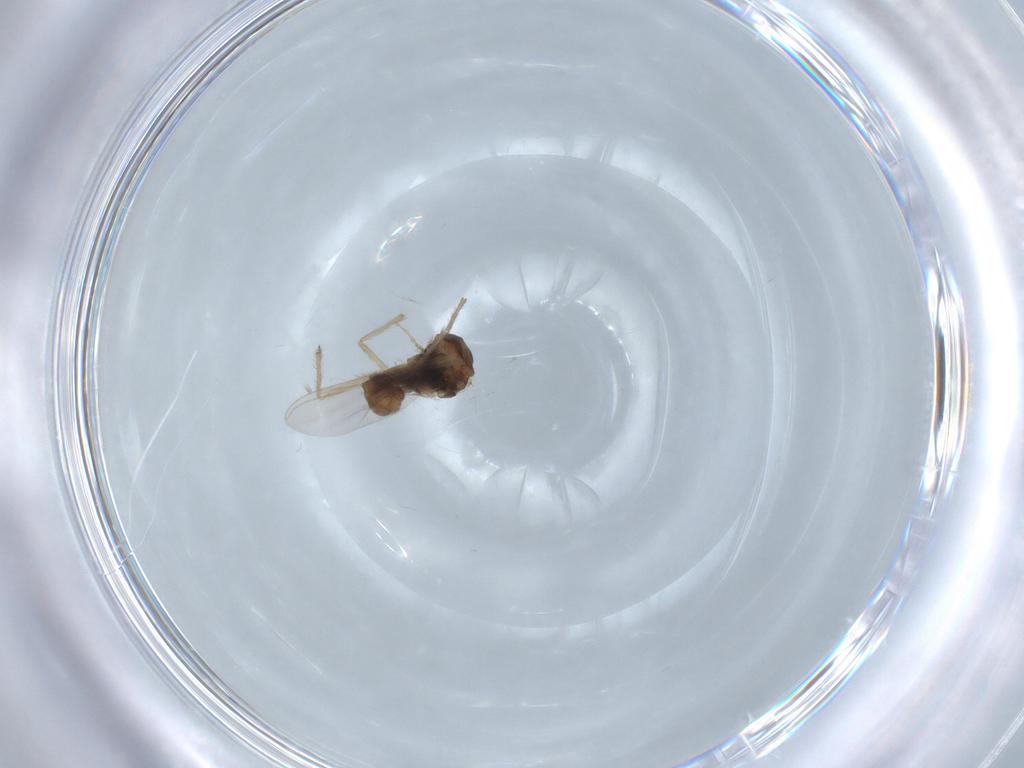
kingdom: Animalia
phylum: Arthropoda
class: Insecta
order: Diptera
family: Chironomidae
